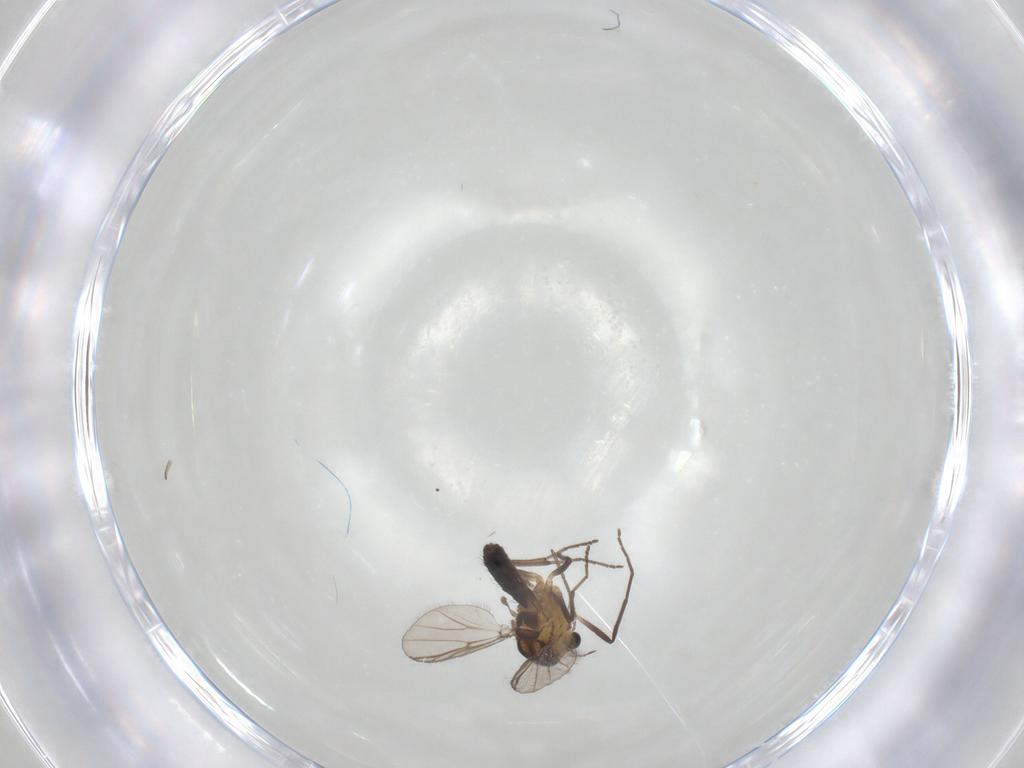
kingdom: Animalia
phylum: Arthropoda
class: Insecta
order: Diptera
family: Chironomidae
